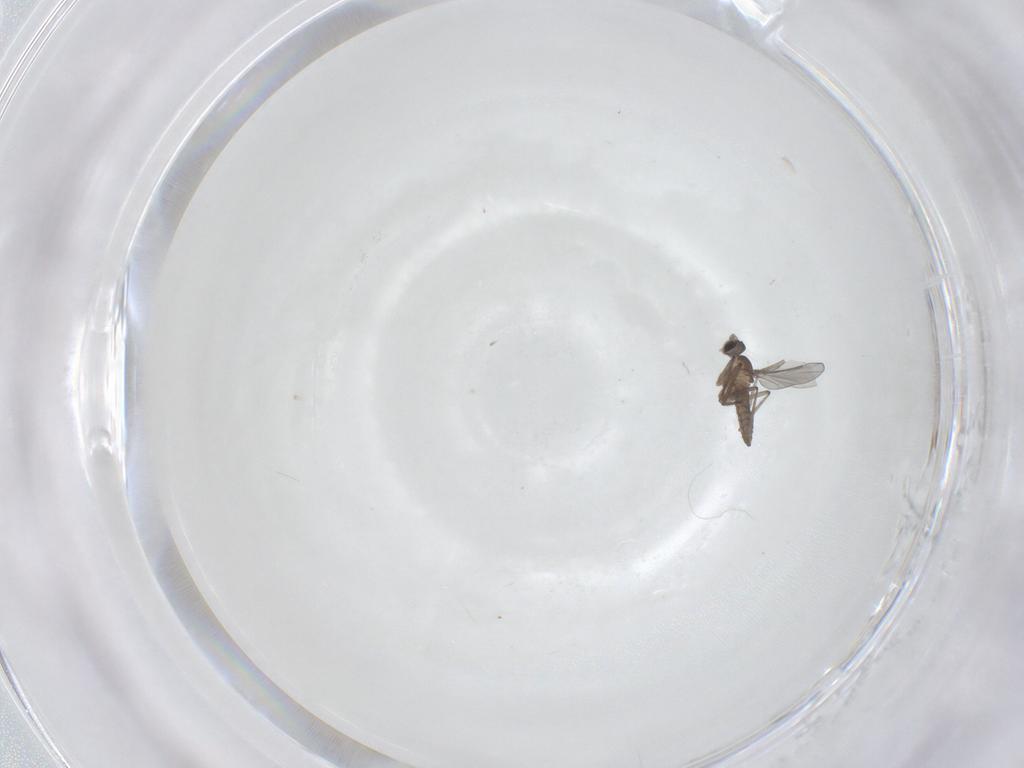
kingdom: Animalia
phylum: Arthropoda
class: Insecta
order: Diptera
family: Cecidomyiidae
